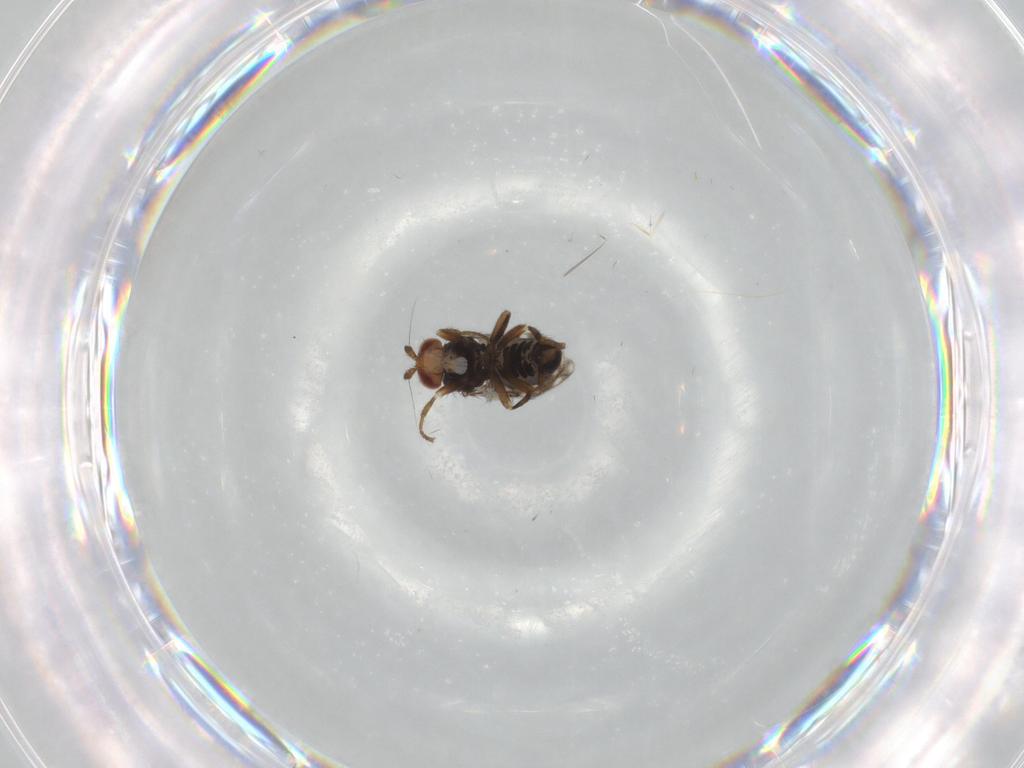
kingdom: Animalia
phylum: Arthropoda
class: Insecta
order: Diptera
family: Sphaeroceridae
